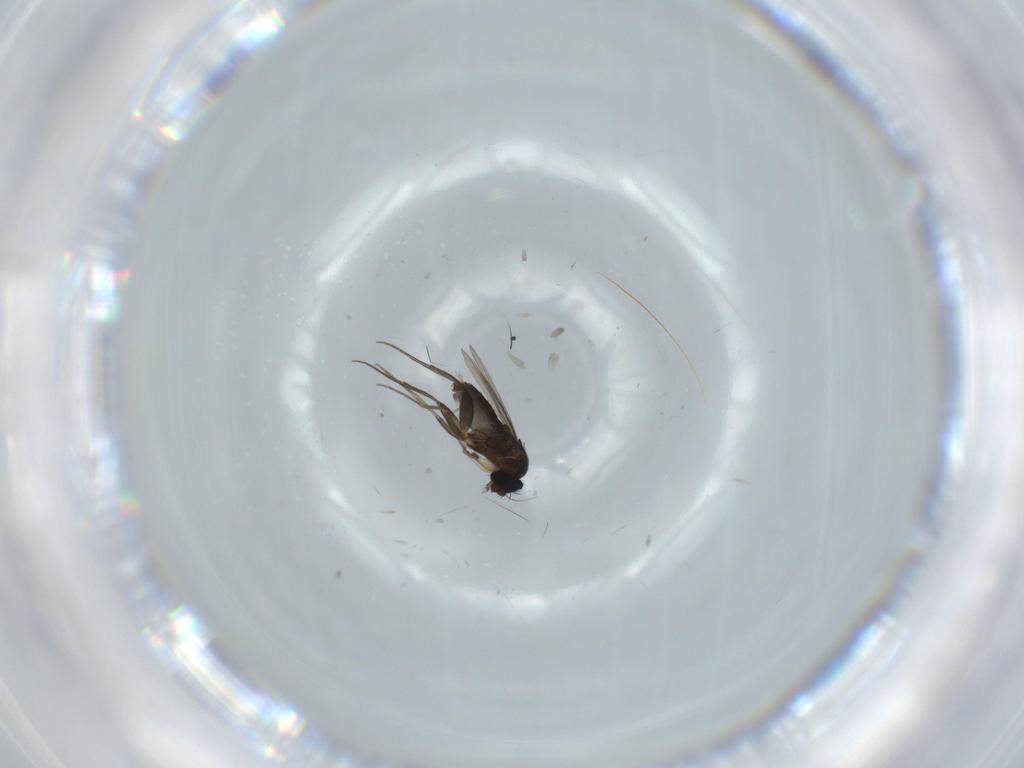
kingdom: Animalia
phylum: Arthropoda
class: Insecta
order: Diptera
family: Phoridae
